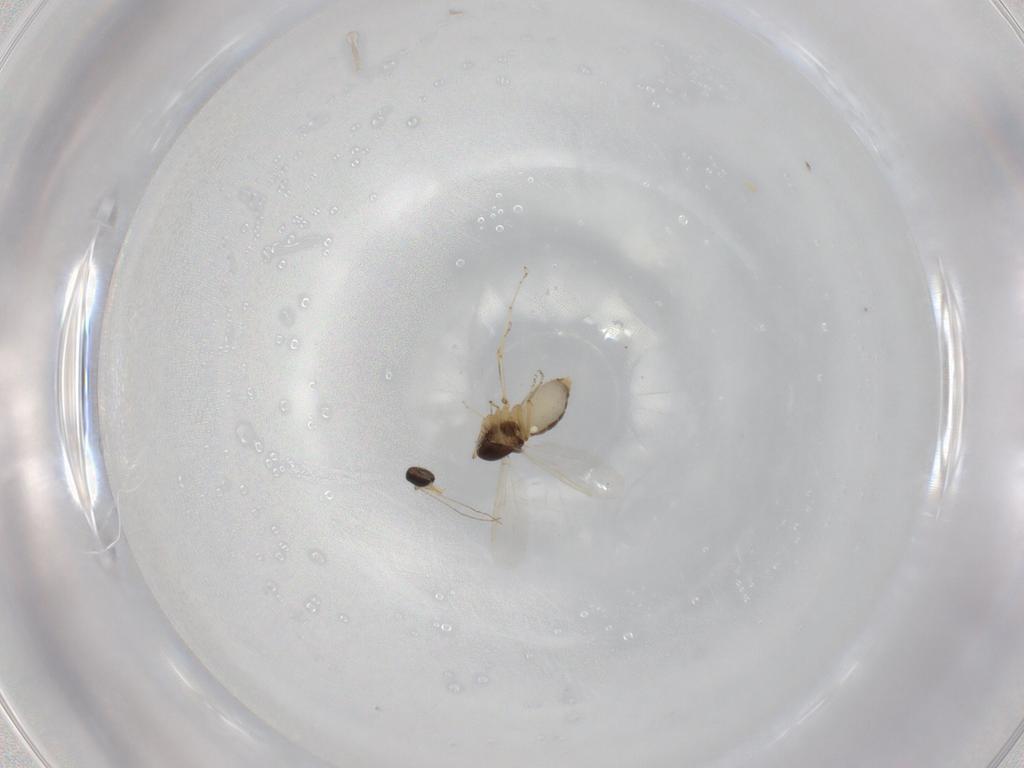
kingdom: Animalia
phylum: Arthropoda
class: Insecta
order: Diptera
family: Ceratopogonidae
